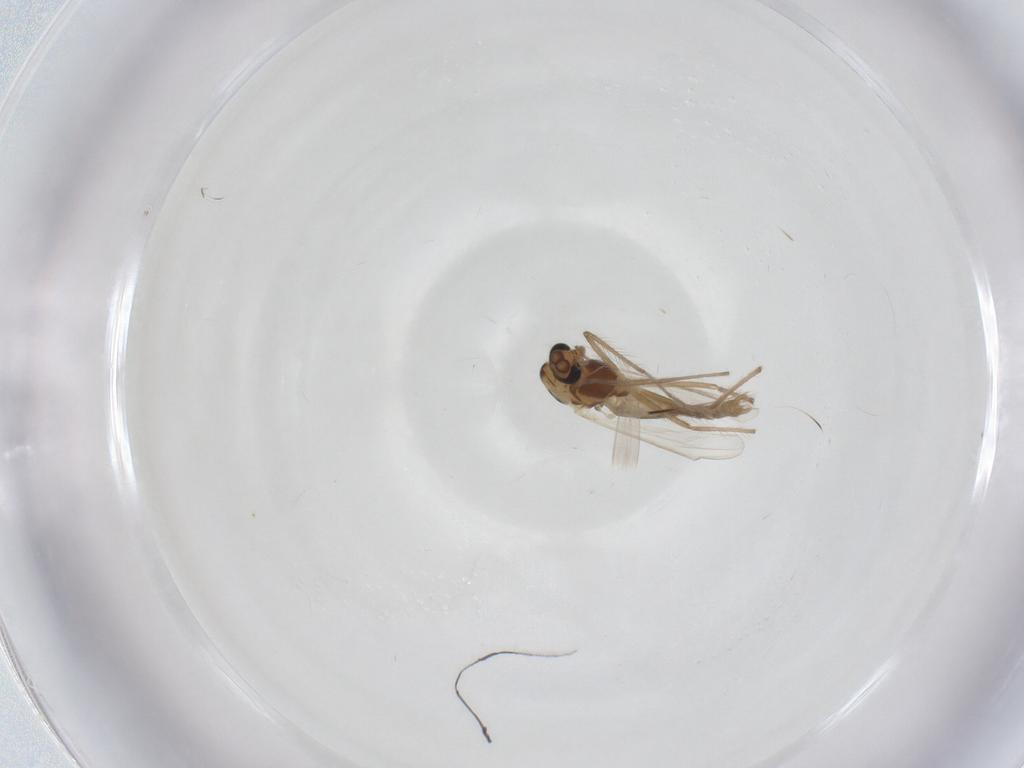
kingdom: Animalia
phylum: Arthropoda
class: Insecta
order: Diptera
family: Chironomidae
